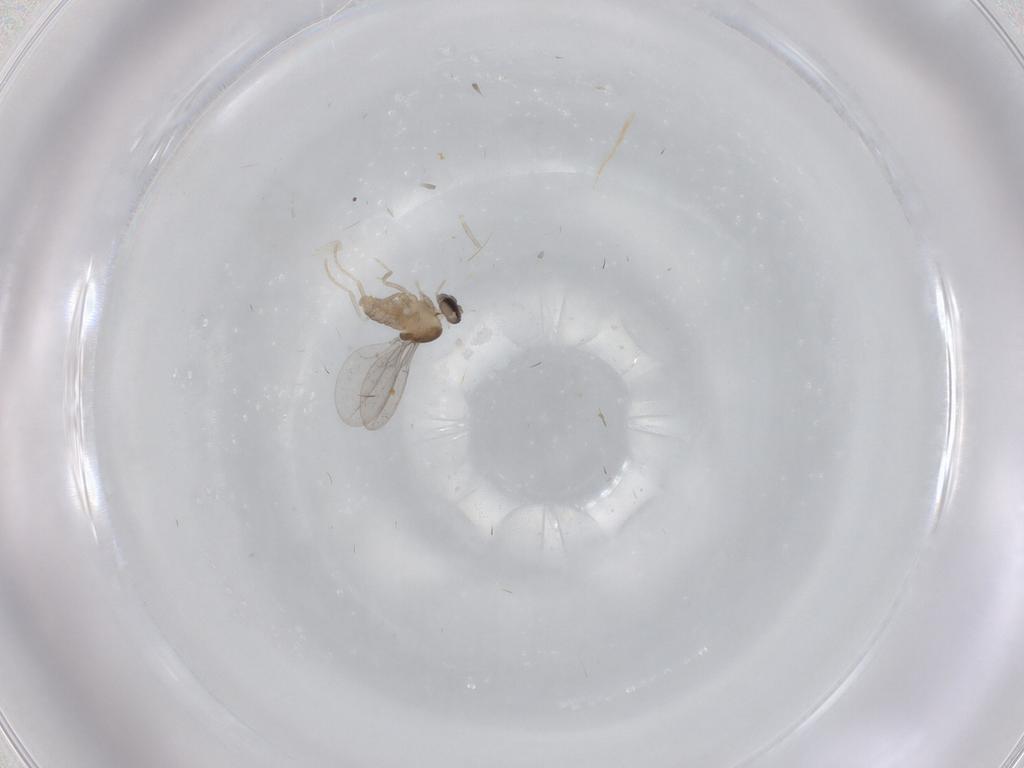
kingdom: Animalia
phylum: Arthropoda
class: Insecta
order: Diptera
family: Cecidomyiidae
